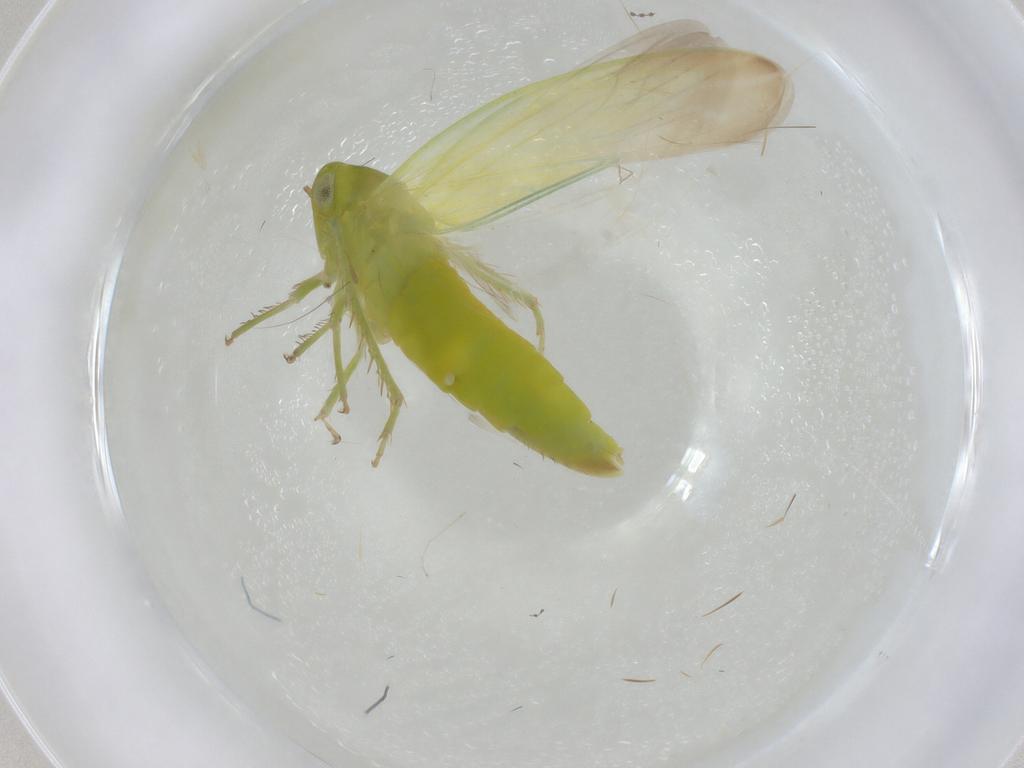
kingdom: Animalia
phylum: Arthropoda
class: Insecta
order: Hemiptera
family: Cicadellidae
